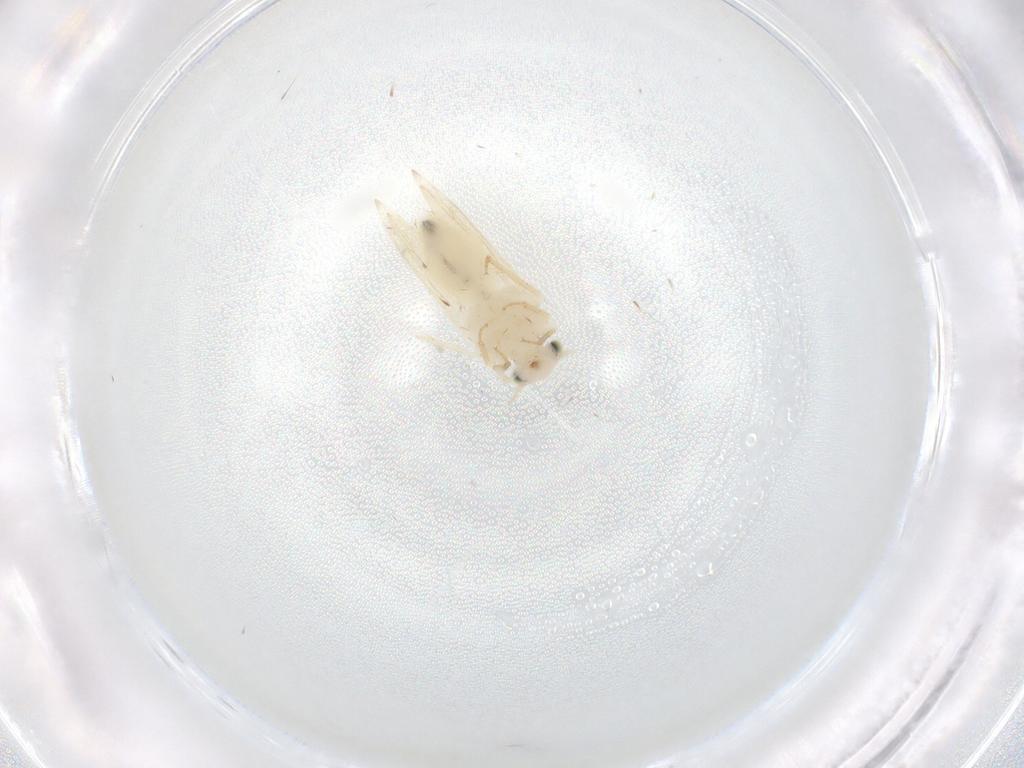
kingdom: Animalia
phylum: Arthropoda
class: Insecta
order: Psocodea
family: Lepidopsocidae
